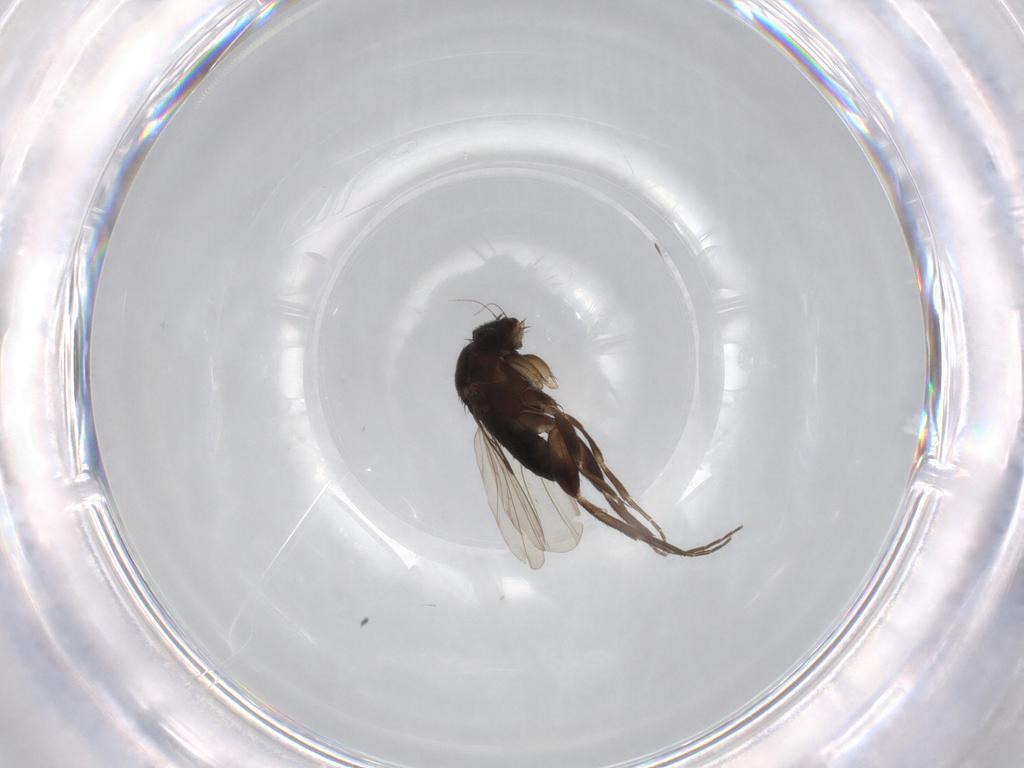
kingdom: Animalia
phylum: Arthropoda
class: Insecta
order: Diptera
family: Phoridae
